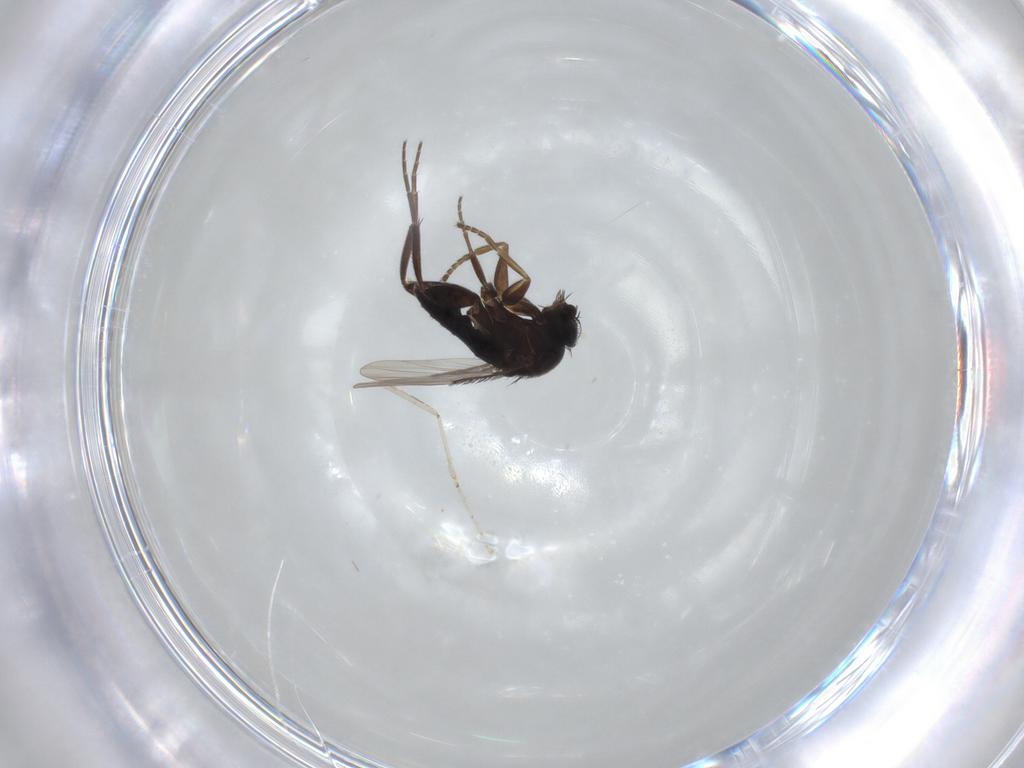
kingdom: Animalia
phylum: Arthropoda
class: Insecta
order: Diptera
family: Phoridae
